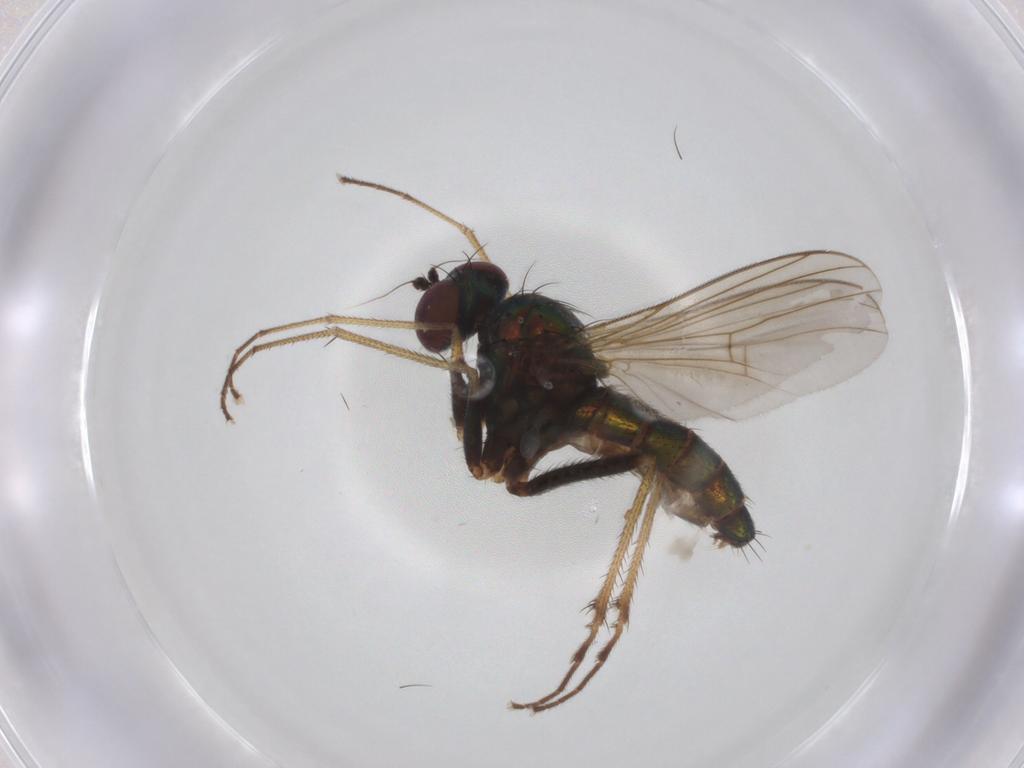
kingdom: Animalia
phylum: Arthropoda
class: Insecta
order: Diptera
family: Dolichopodidae
